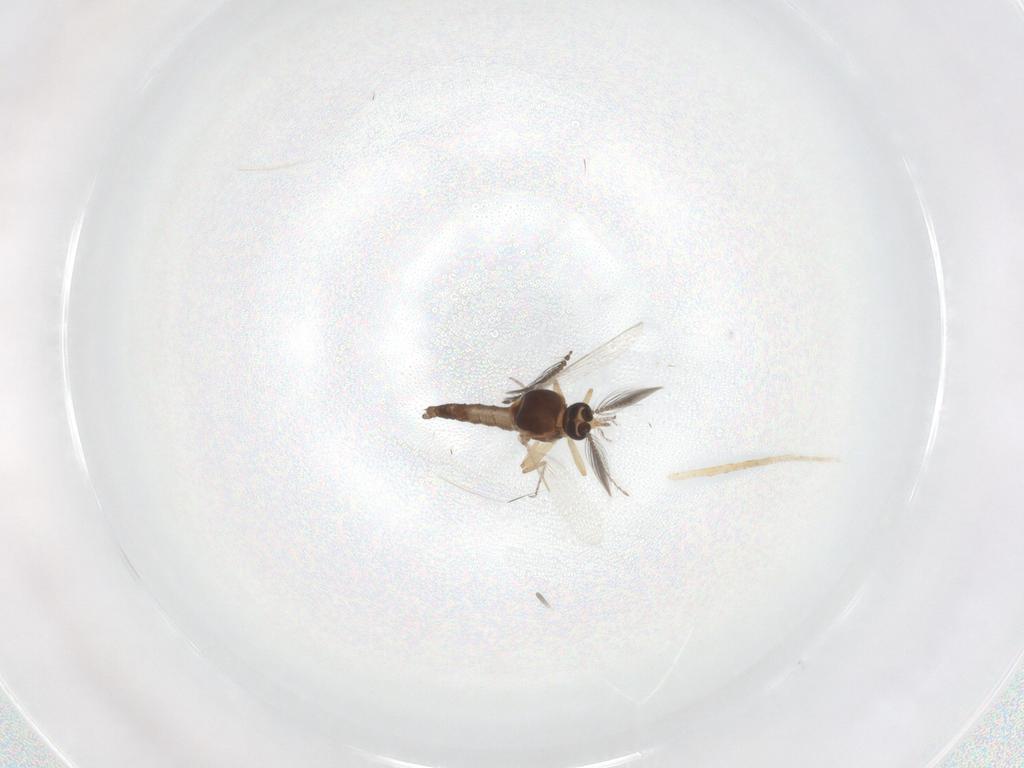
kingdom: Animalia
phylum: Arthropoda
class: Insecta
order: Diptera
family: Ceratopogonidae
